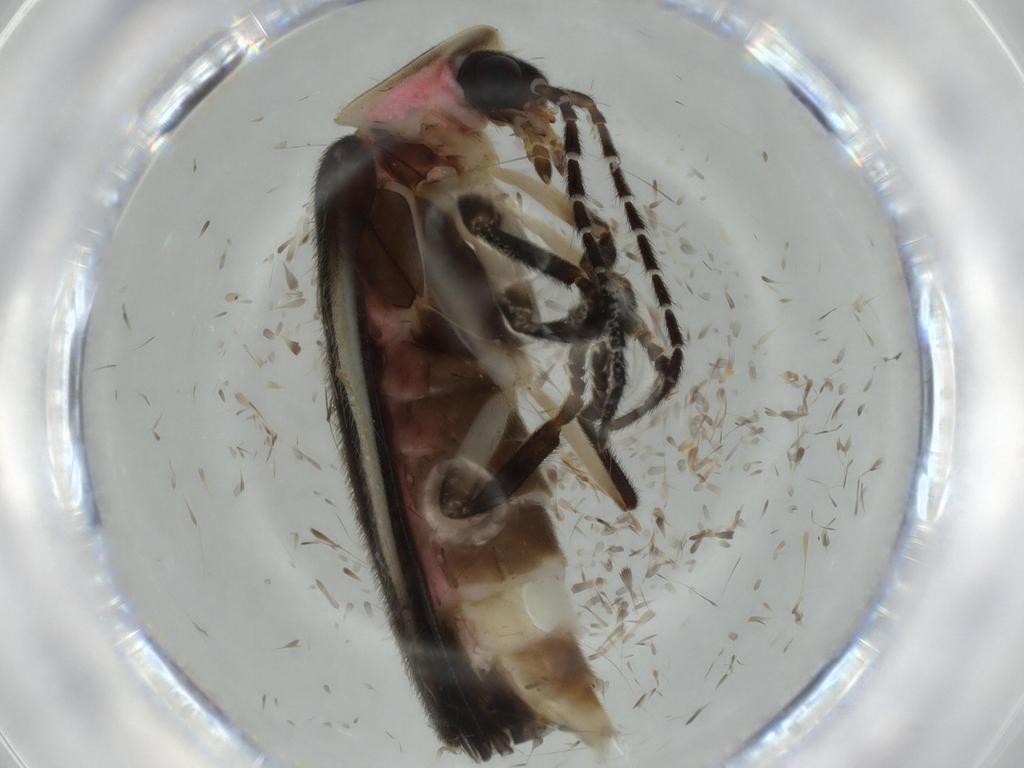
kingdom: Animalia
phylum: Arthropoda
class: Insecta
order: Coleoptera
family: Lampyridae
